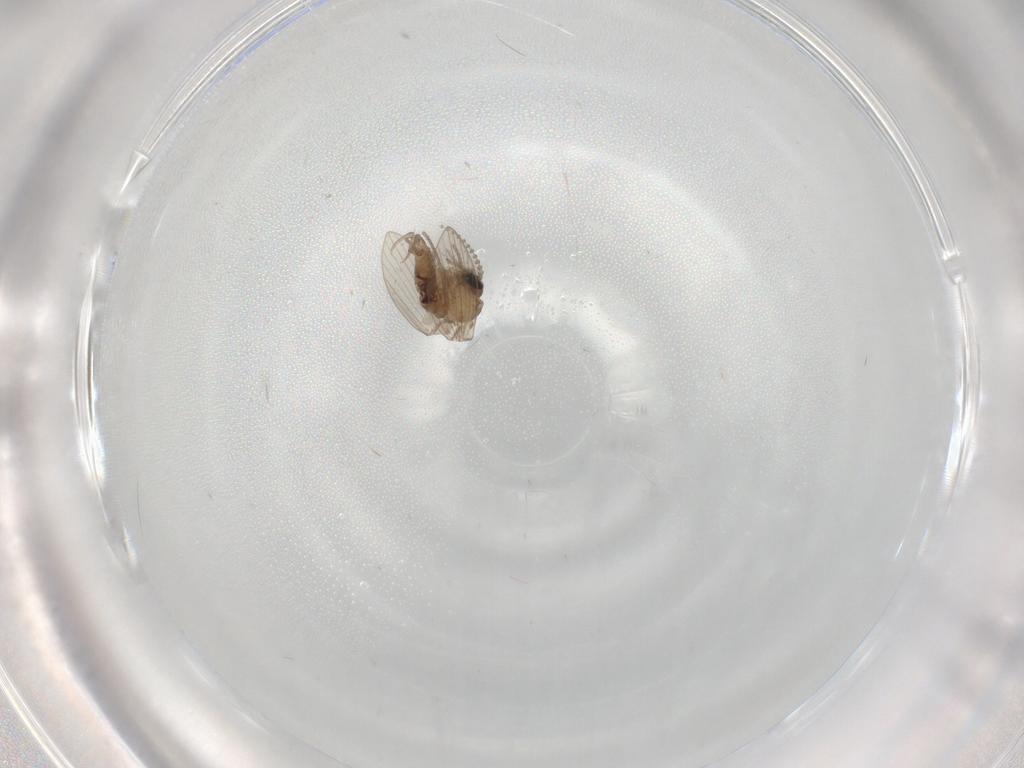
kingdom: Animalia
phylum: Arthropoda
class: Insecta
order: Diptera
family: Psychodidae
